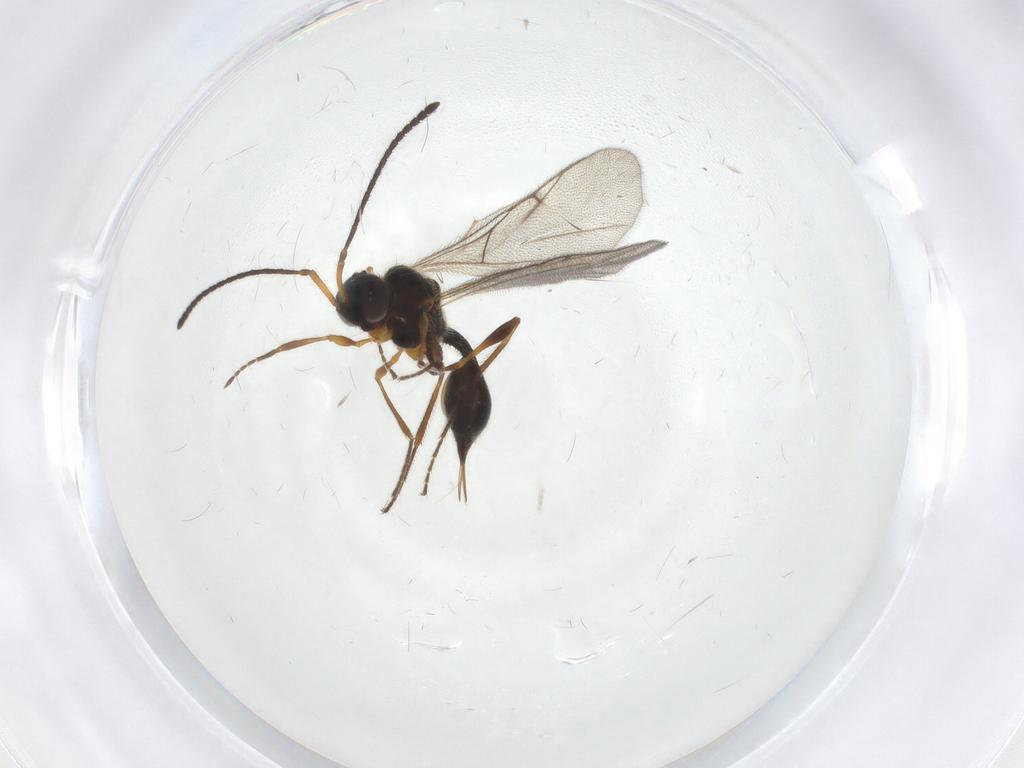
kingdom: Animalia
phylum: Arthropoda
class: Insecta
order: Hymenoptera
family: Diapriidae
